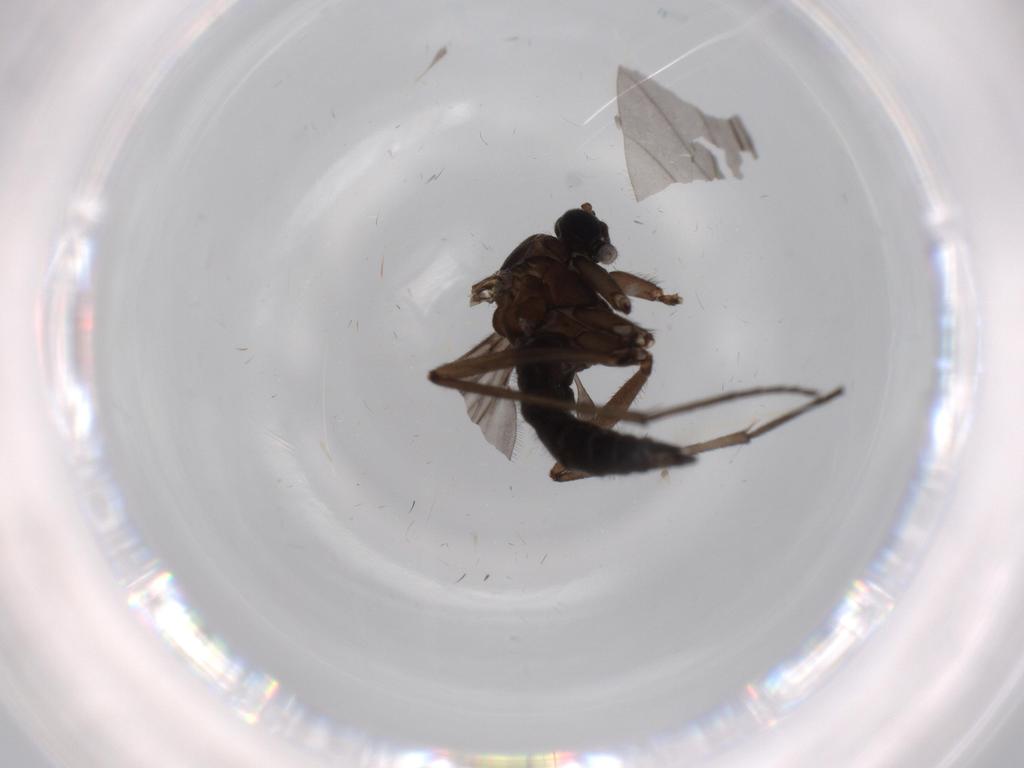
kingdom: Animalia
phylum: Arthropoda
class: Insecta
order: Diptera
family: Sciaridae
